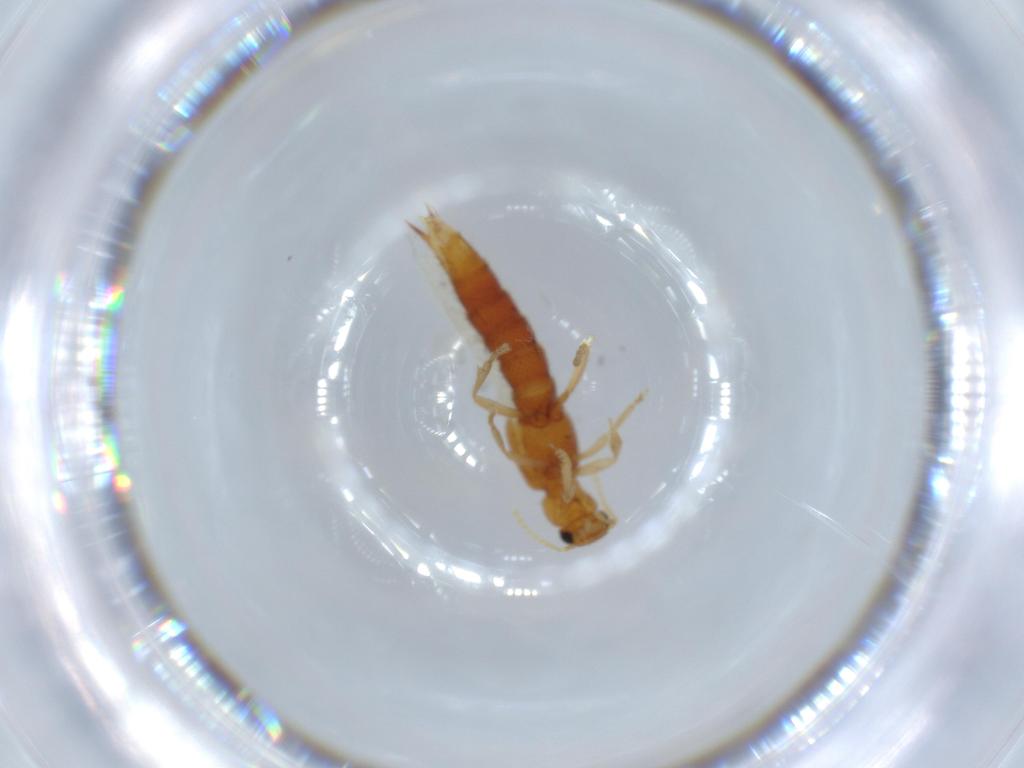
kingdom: Animalia
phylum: Arthropoda
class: Insecta
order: Coleoptera
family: Staphylinidae
